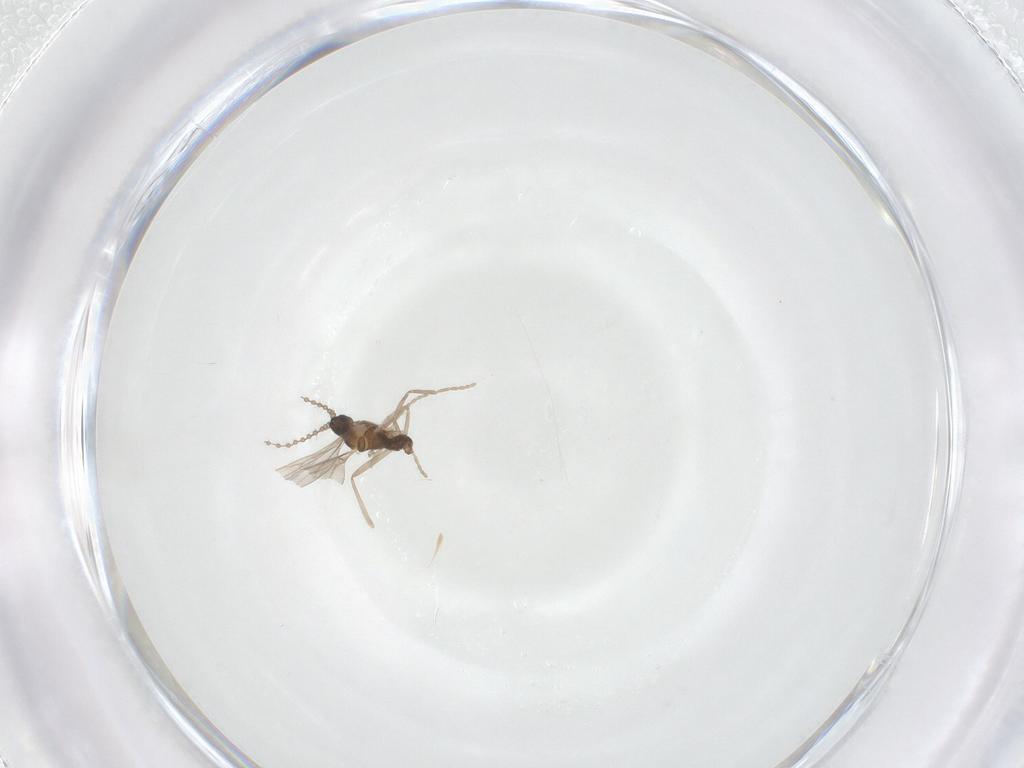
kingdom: Animalia
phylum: Arthropoda
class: Insecta
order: Diptera
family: Cecidomyiidae
